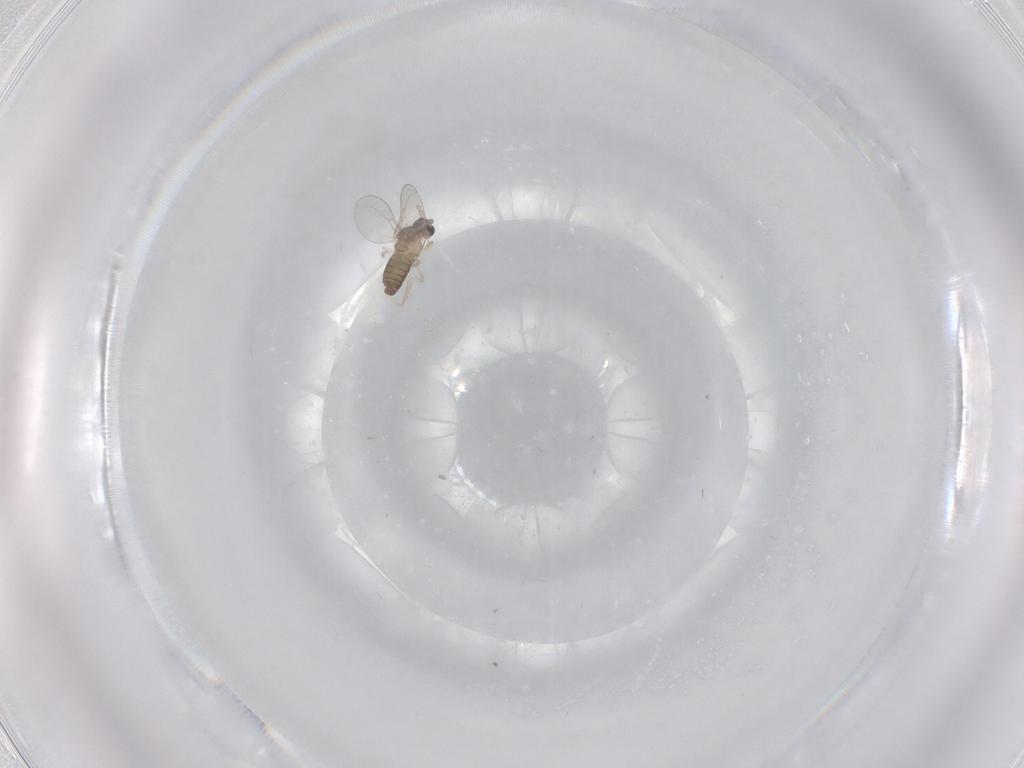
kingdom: Animalia
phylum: Arthropoda
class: Insecta
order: Diptera
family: Cecidomyiidae
